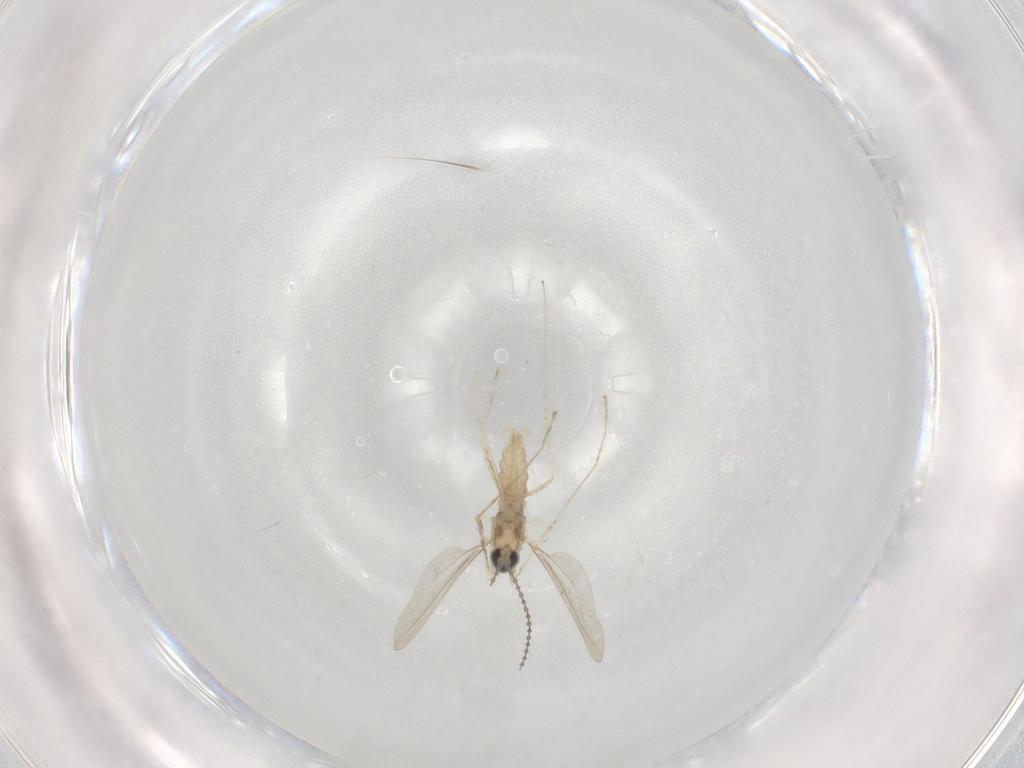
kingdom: Animalia
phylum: Arthropoda
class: Insecta
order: Diptera
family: Cecidomyiidae
